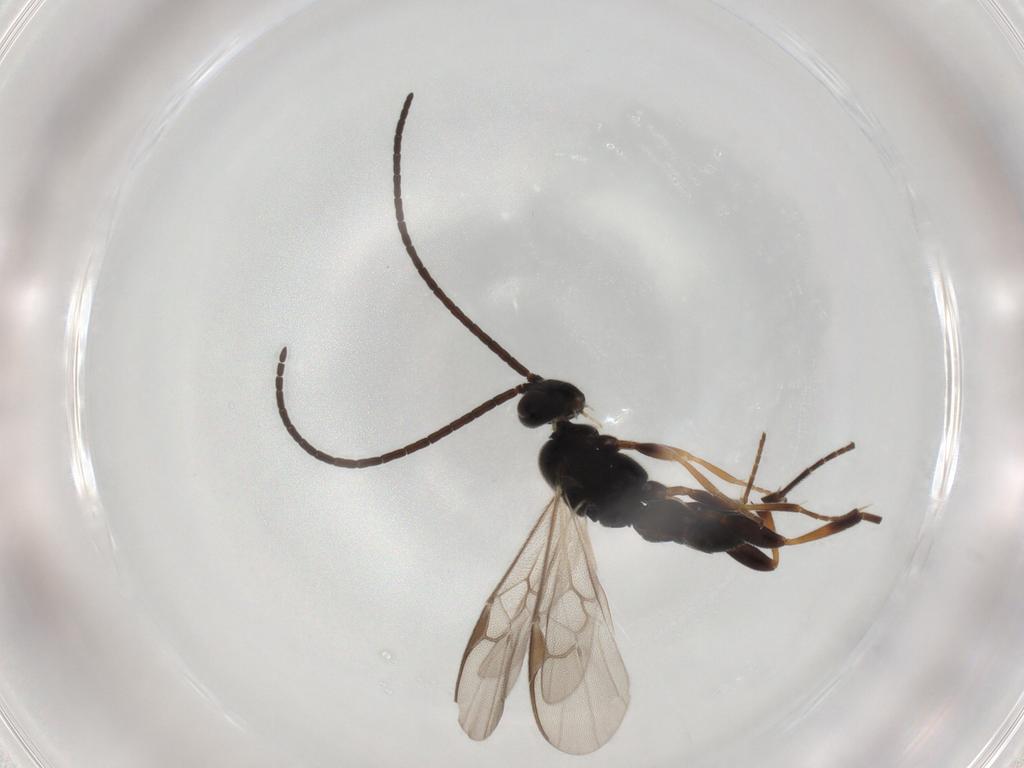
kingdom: Animalia
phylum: Arthropoda
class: Insecta
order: Hymenoptera
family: Braconidae
